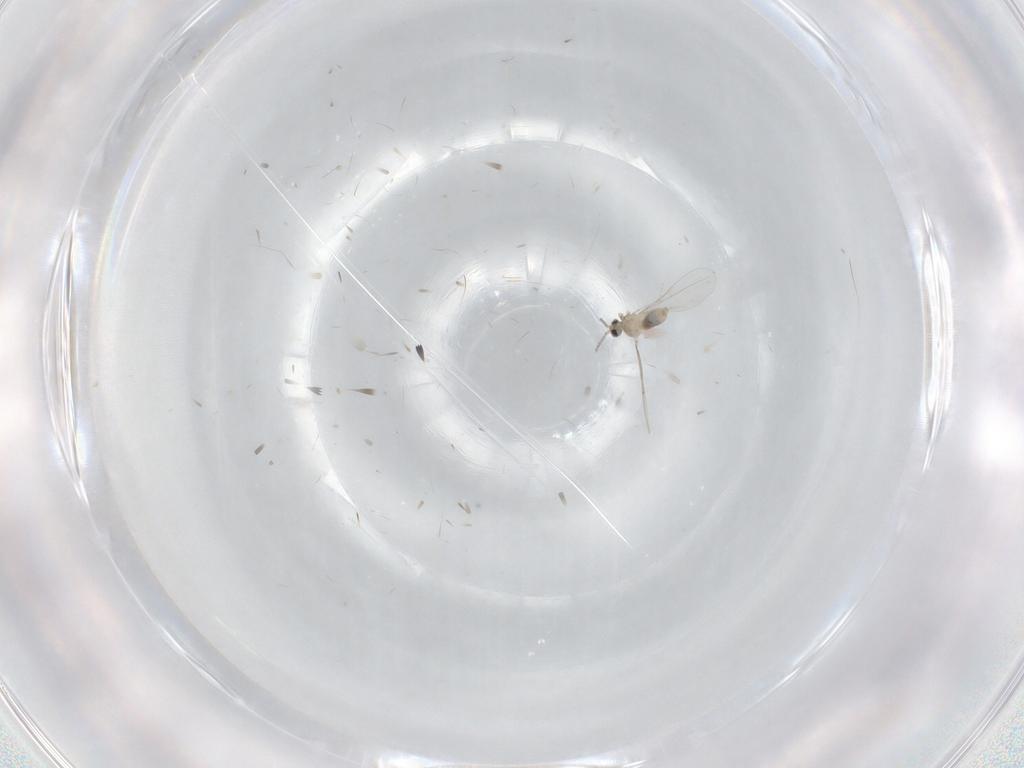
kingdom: Animalia
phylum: Arthropoda
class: Insecta
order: Diptera
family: Cecidomyiidae
